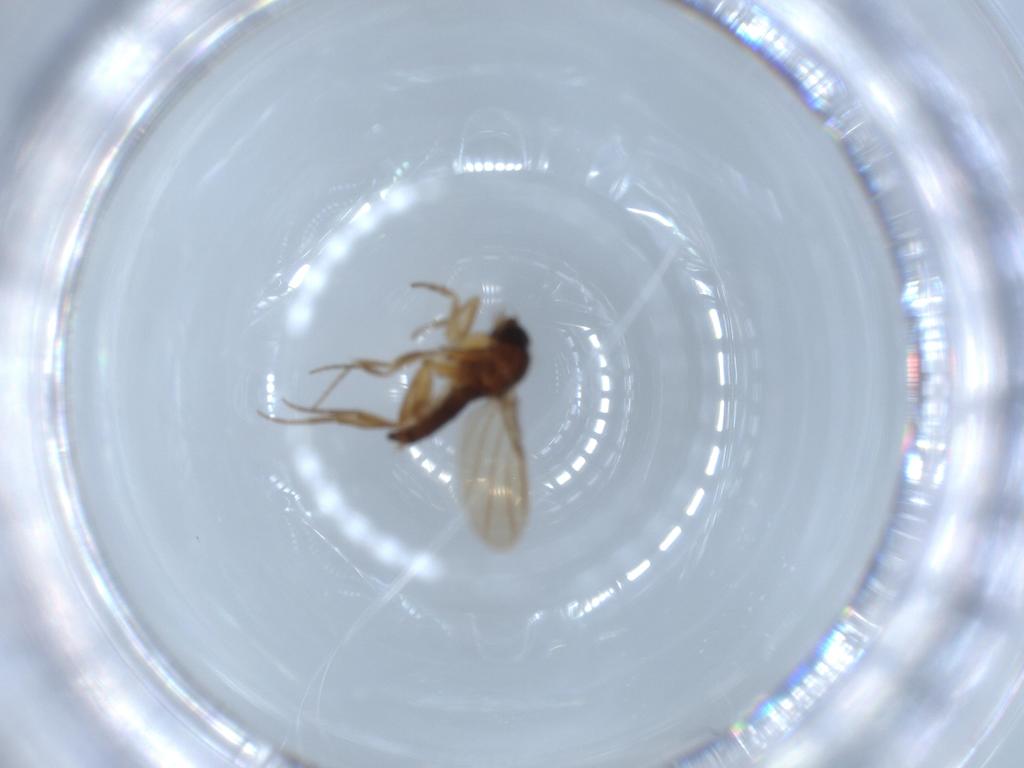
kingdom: Animalia
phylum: Arthropoda
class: Insecta
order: Diptera
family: Phoridae
